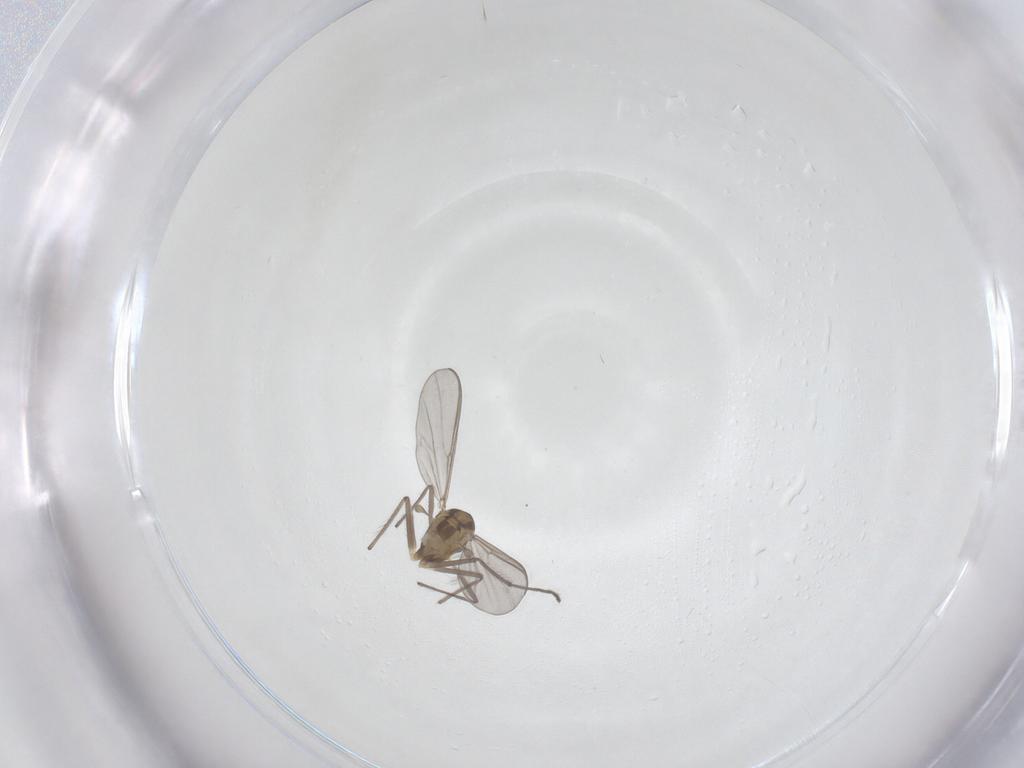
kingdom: Animalia
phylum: Arthropoda
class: Insecta
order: Diptera
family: Chironomidae
